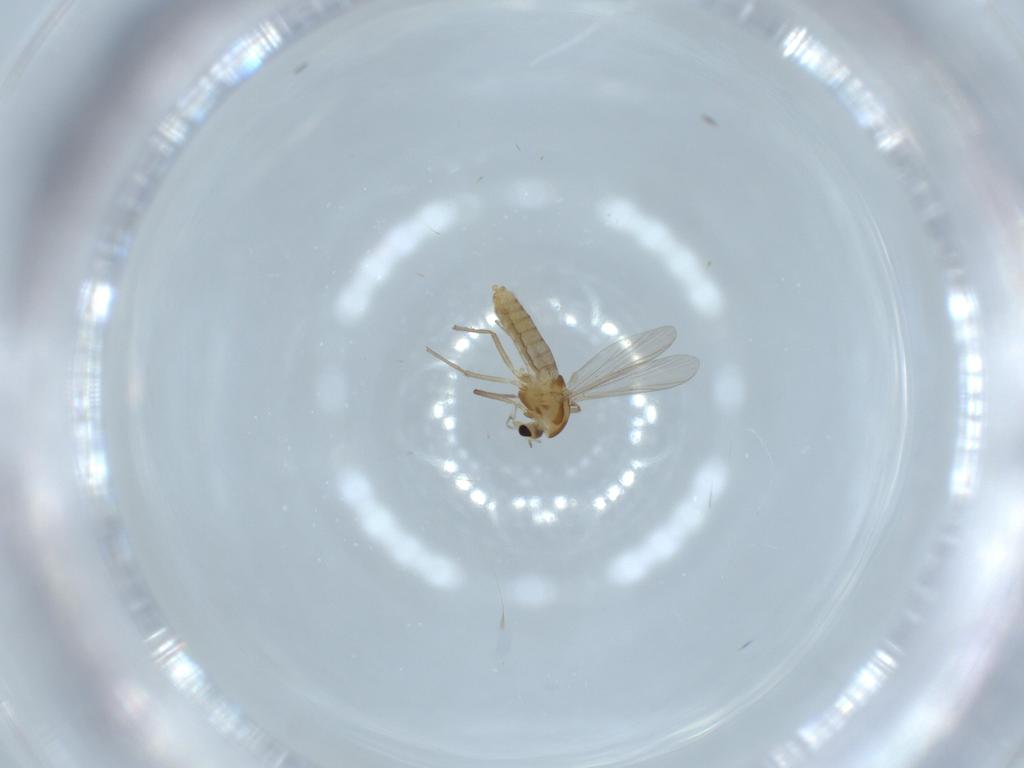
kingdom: Animalia
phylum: Arthropoda
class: Insecta
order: Diptera
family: Chironomidae
